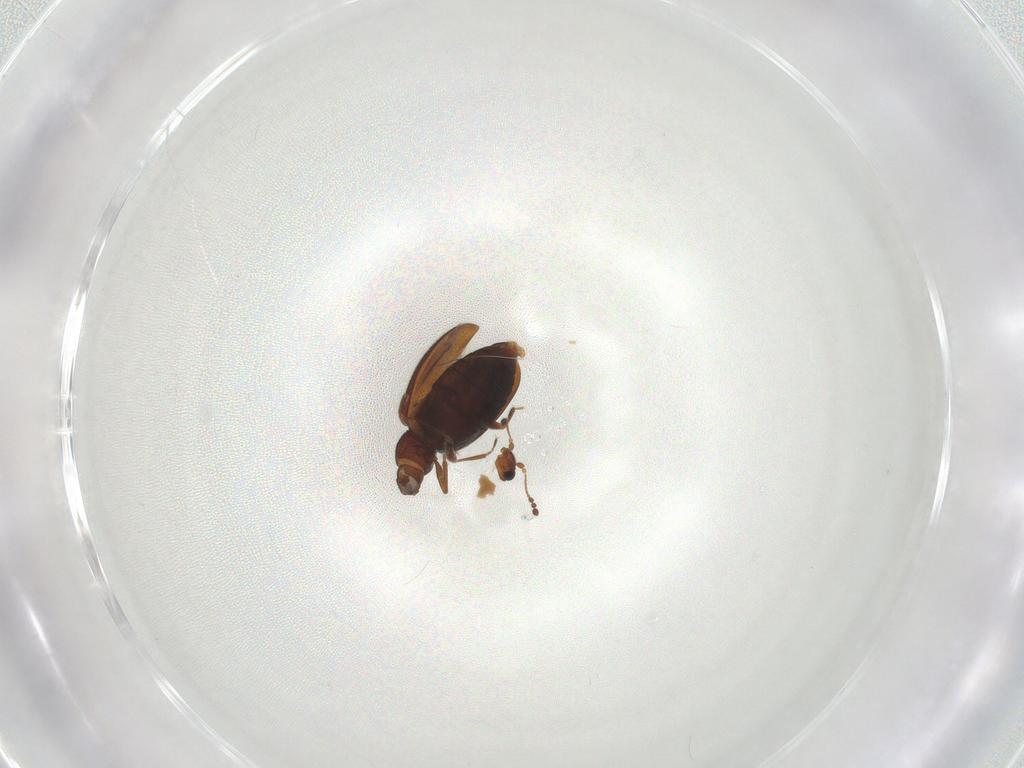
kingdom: Animalia
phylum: Arthropoda
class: Insecta
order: Coleoptera
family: Latridiidae
